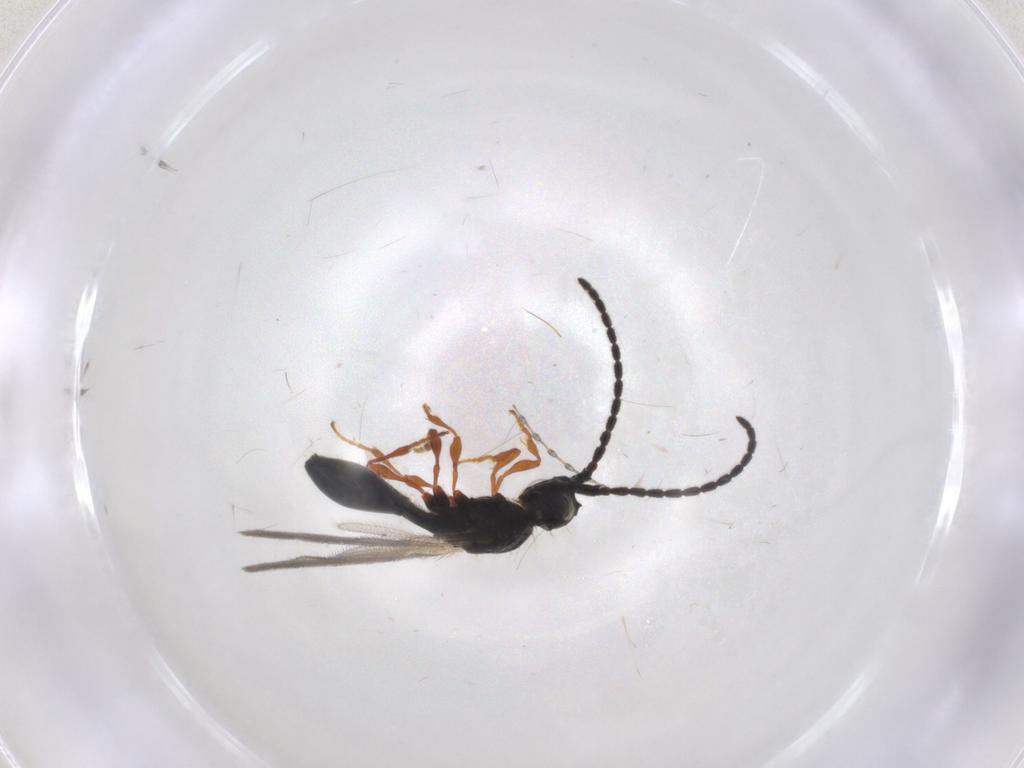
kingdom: Animalia
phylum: Arthropoda
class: Insecta
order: Hymenoptera
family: Diapriidae
